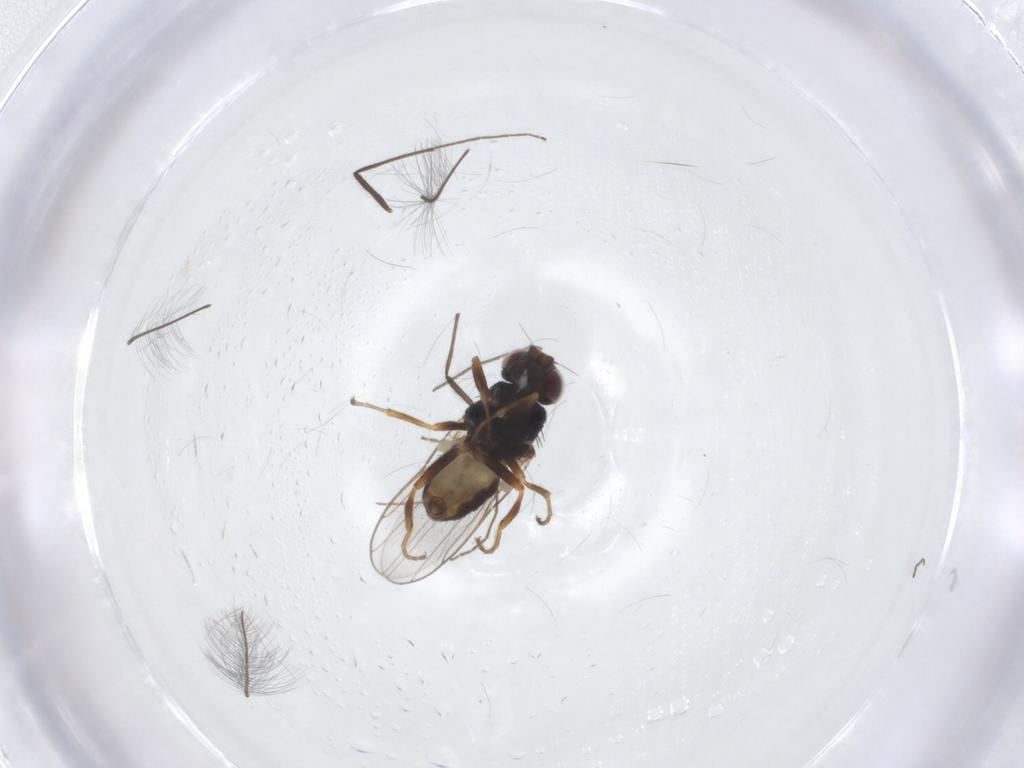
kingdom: Animalia
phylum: Arthropoda
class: Insecta
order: Diptera
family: Chloropidae
